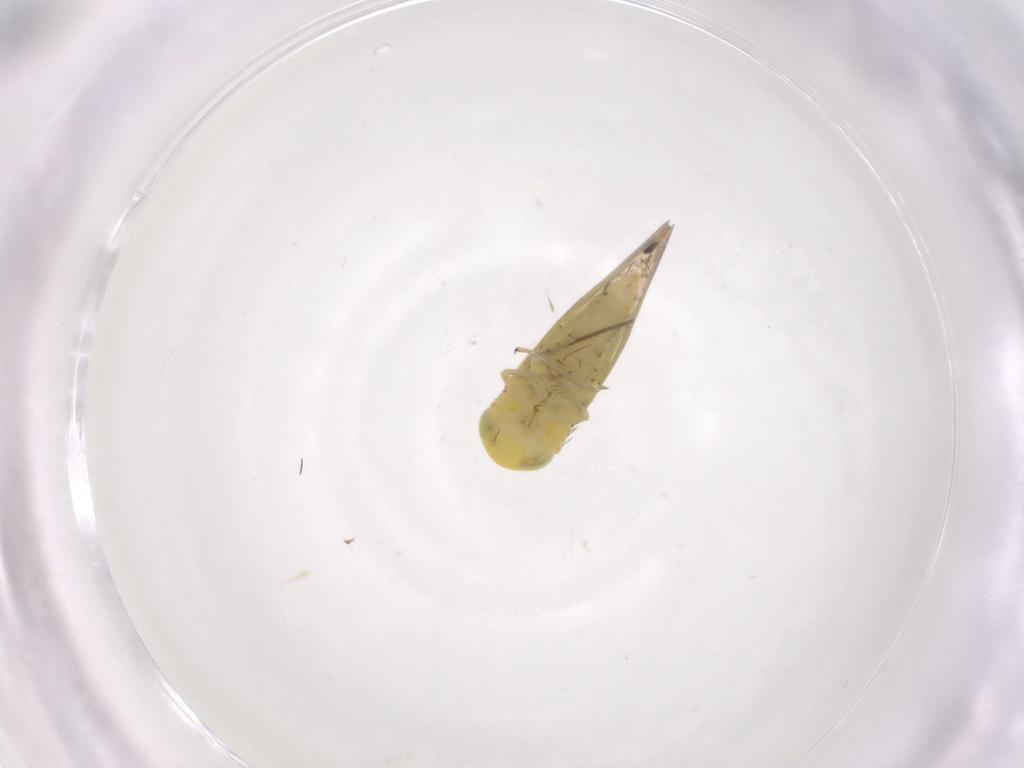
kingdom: Animalia
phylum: Arthropoda
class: Insecta
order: Hemiptera
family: Cicadellidae
